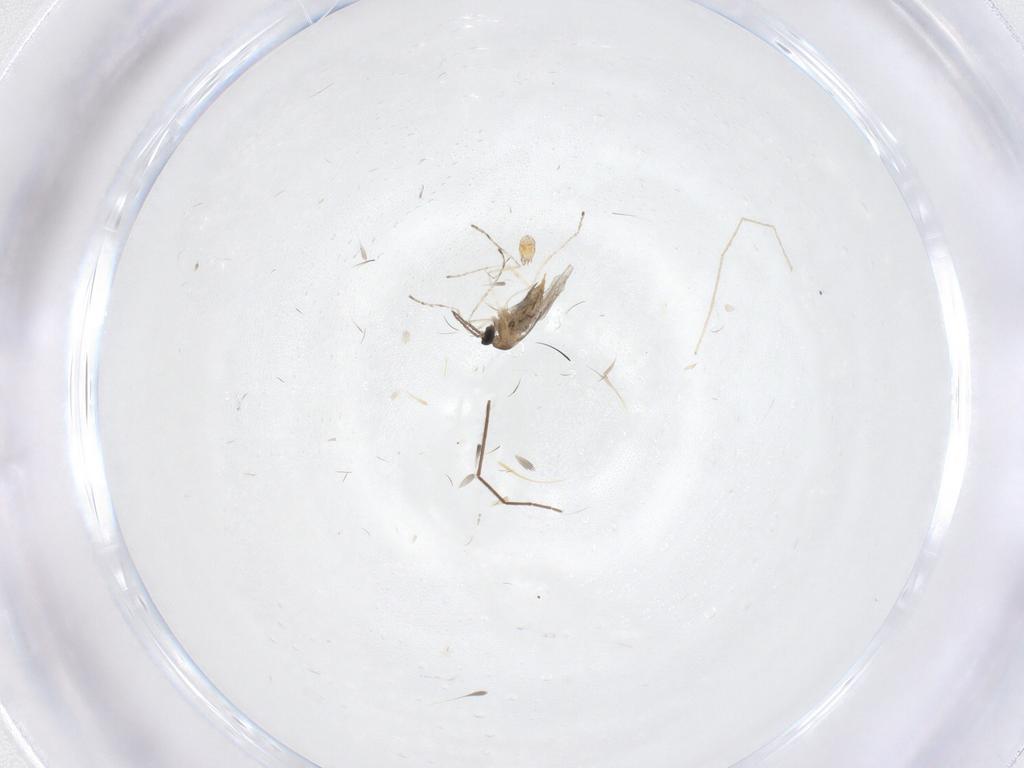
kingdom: Animalia
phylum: Arthropoda
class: Insecta
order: Diptera
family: Cecidomyiidae
